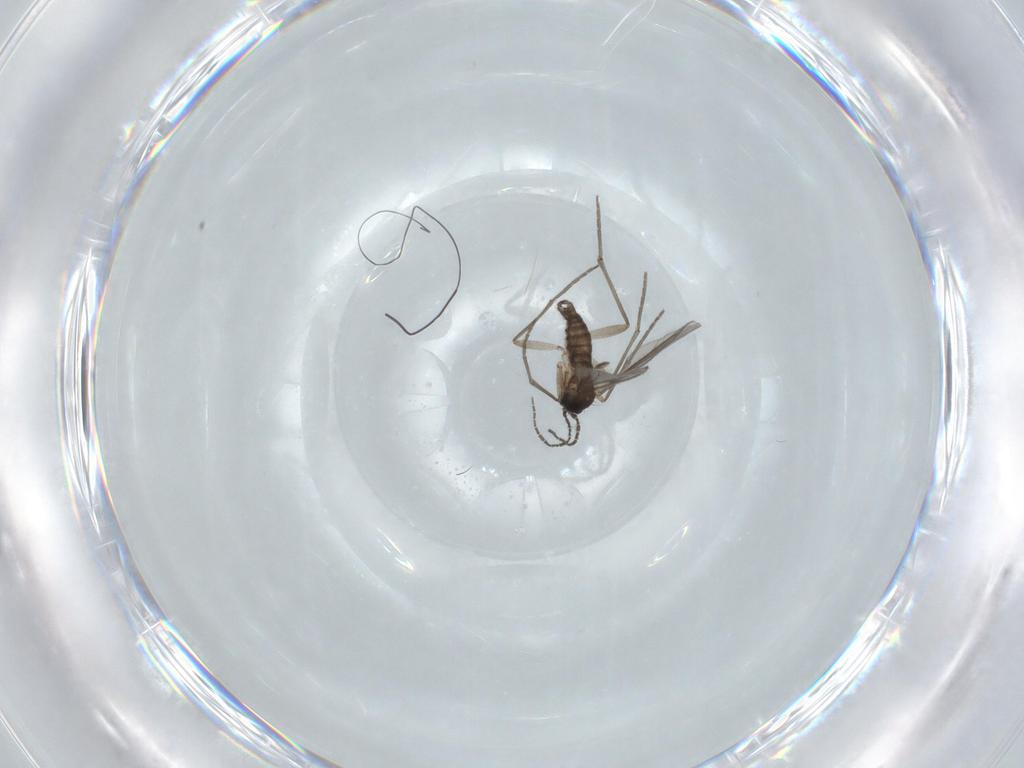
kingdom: Animalia
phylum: Arthropoda
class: Insecta
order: Diptera
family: Sciaridae
